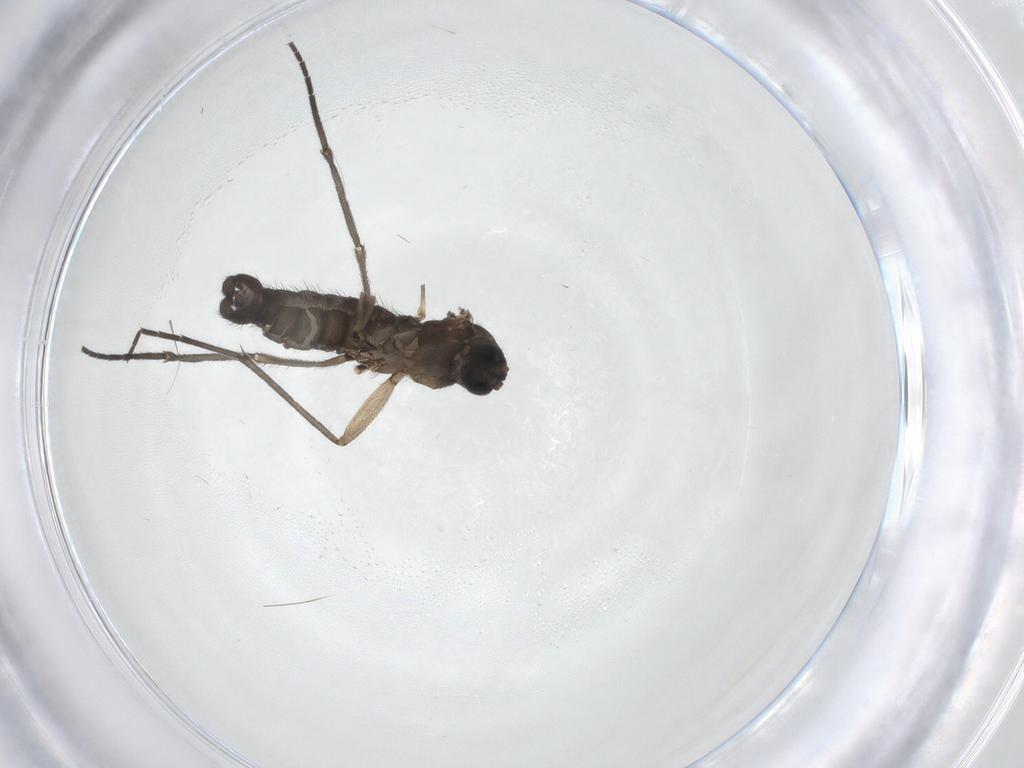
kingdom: Animalia
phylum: Arthropoda
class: Insecta
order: Diptera
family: Sciaridae
